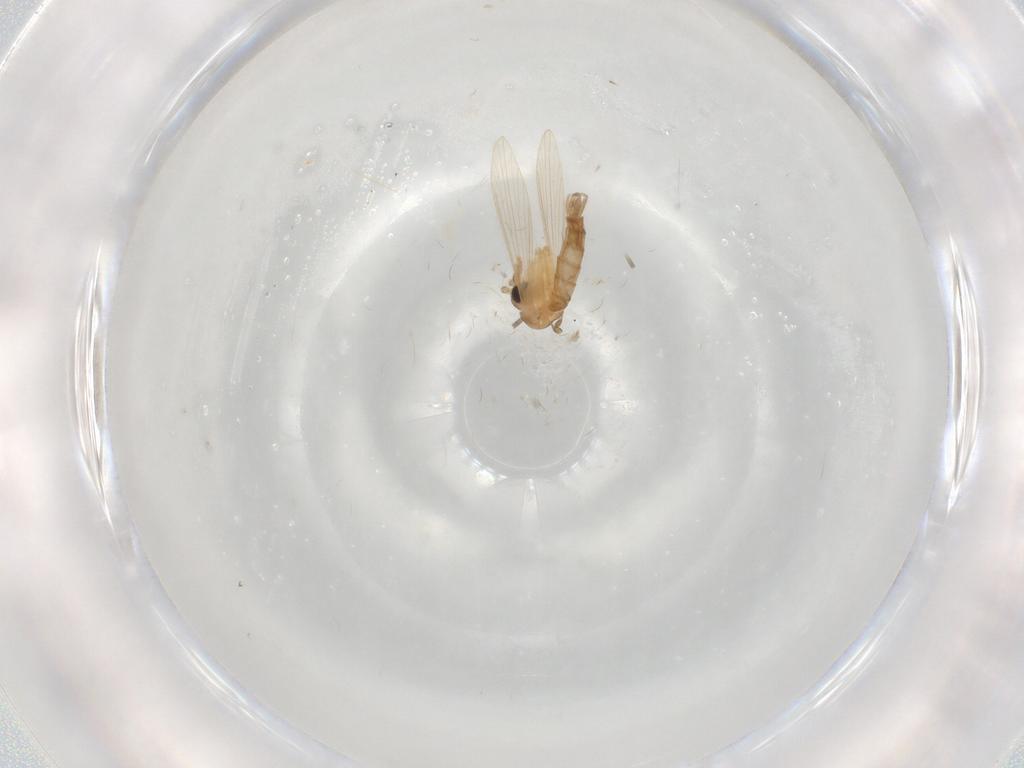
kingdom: Animalia
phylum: Arthropoda
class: Insecta
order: Diptera
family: Psychodidae
